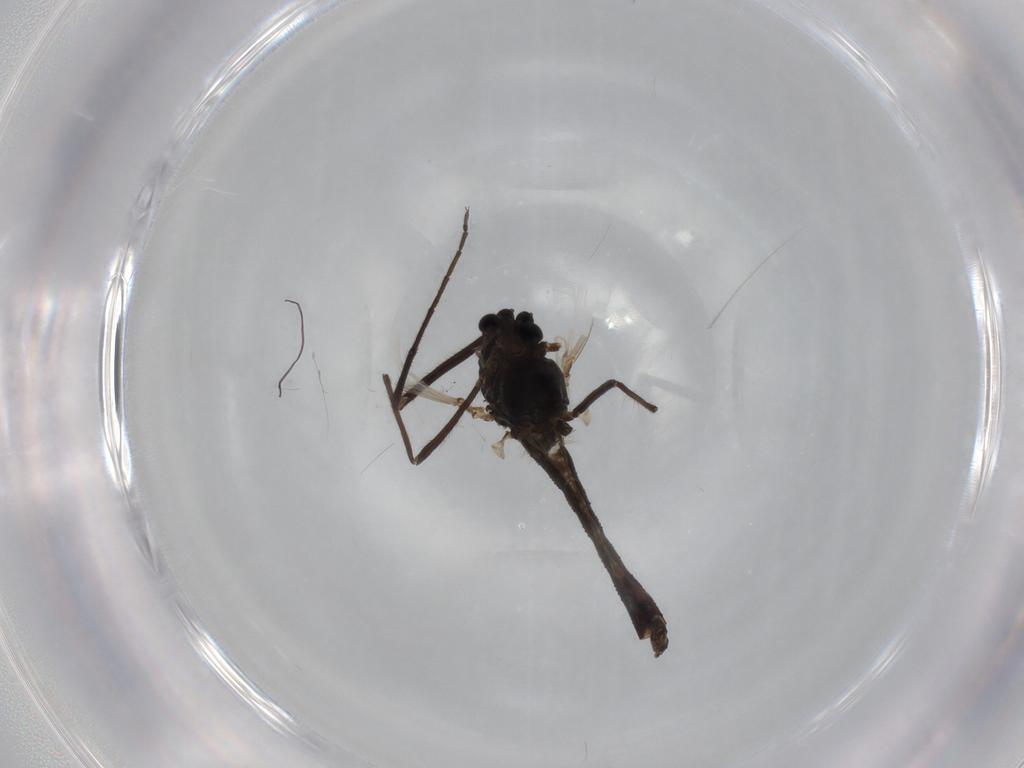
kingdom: Animalia
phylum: Arthropoda
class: Insecta
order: Diptera
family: Chironomidae
